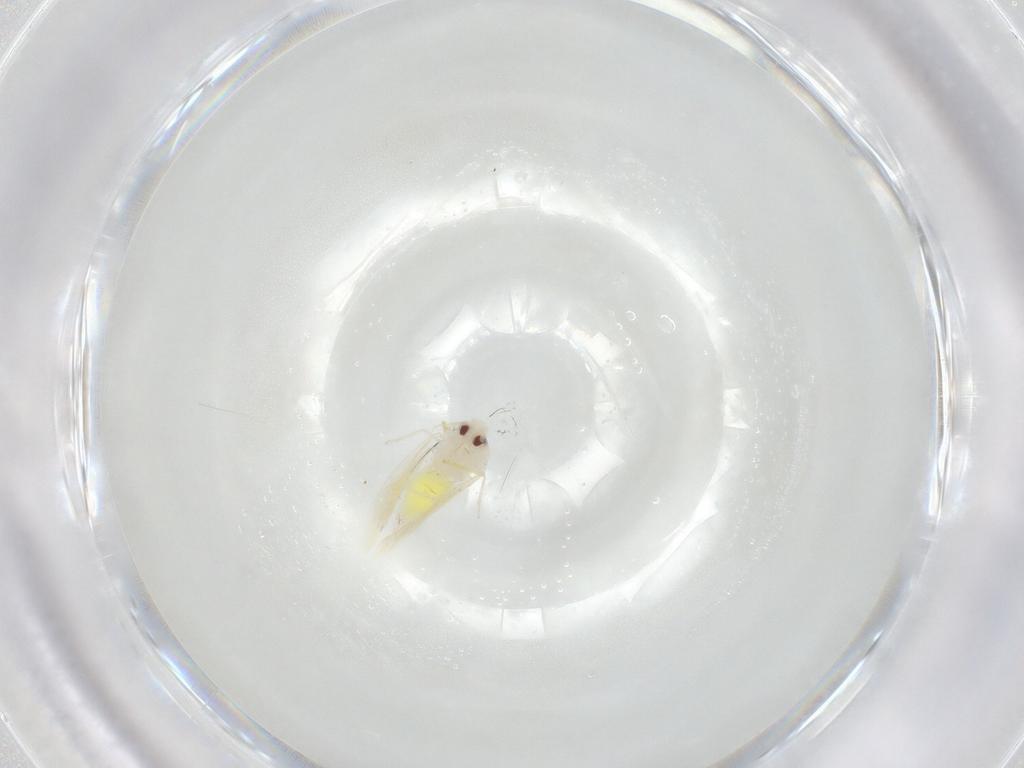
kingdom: Animalia
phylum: Arthropoda
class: Insecta
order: Hemiptera
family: Aleyrodidae
